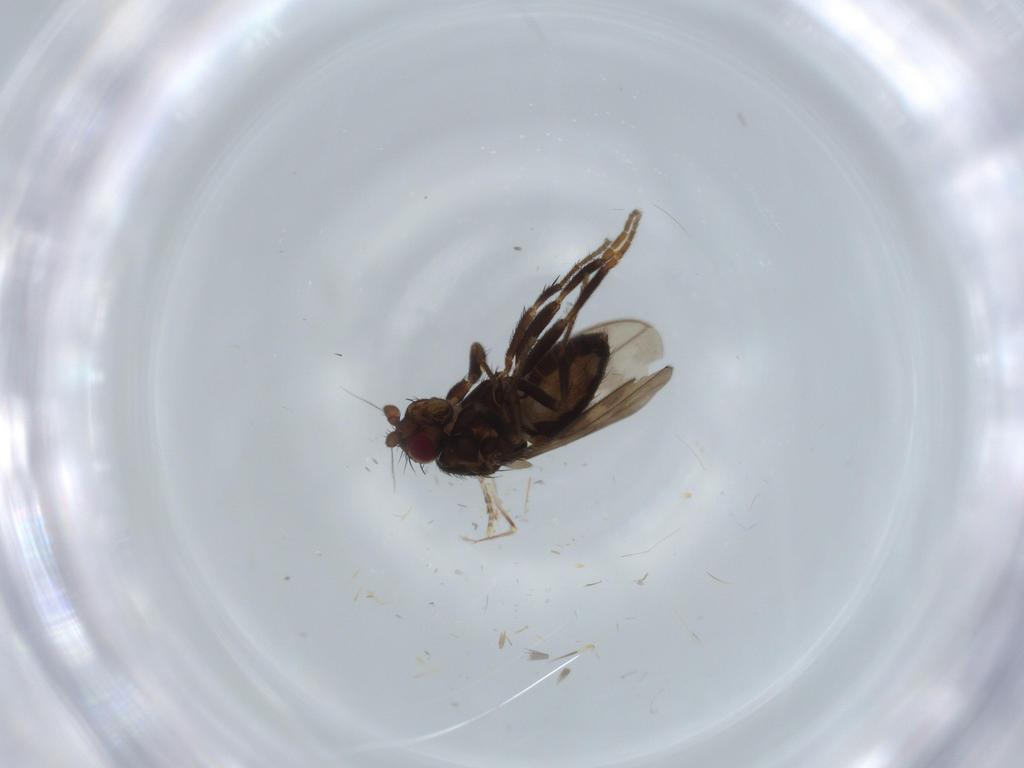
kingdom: Animalia
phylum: Arthropoda
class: Insecta
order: Diptera
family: Sphaeroceridae
